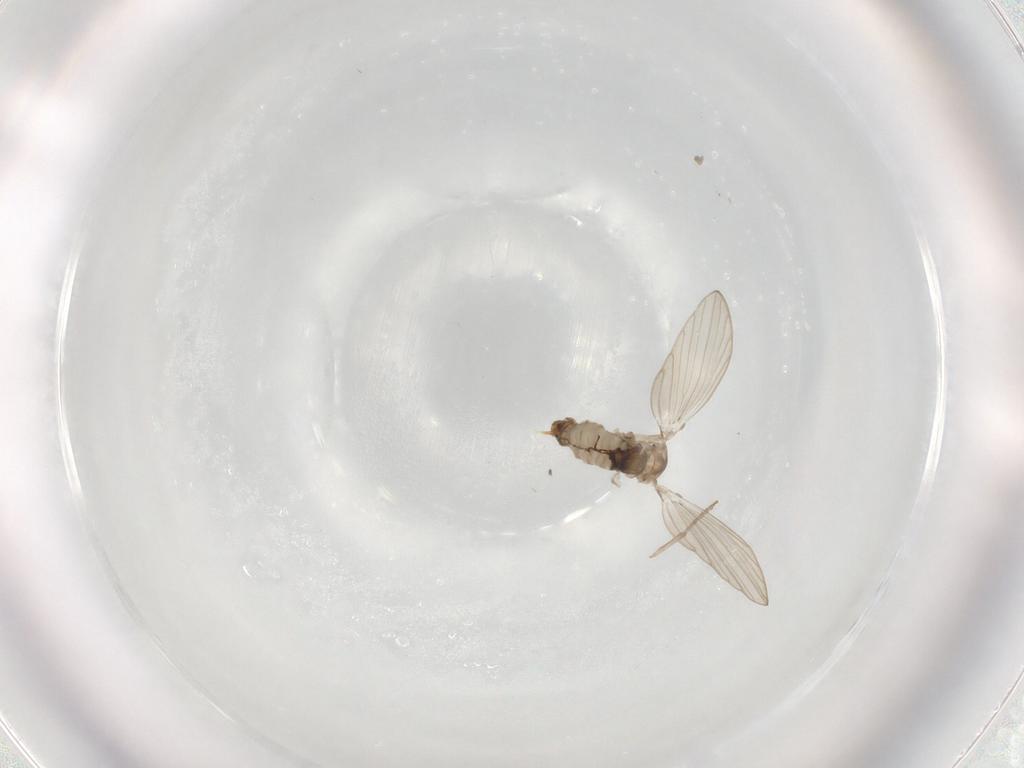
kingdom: Animalia
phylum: Arthropoda
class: Insecta
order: Diptera
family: Psychodidae
